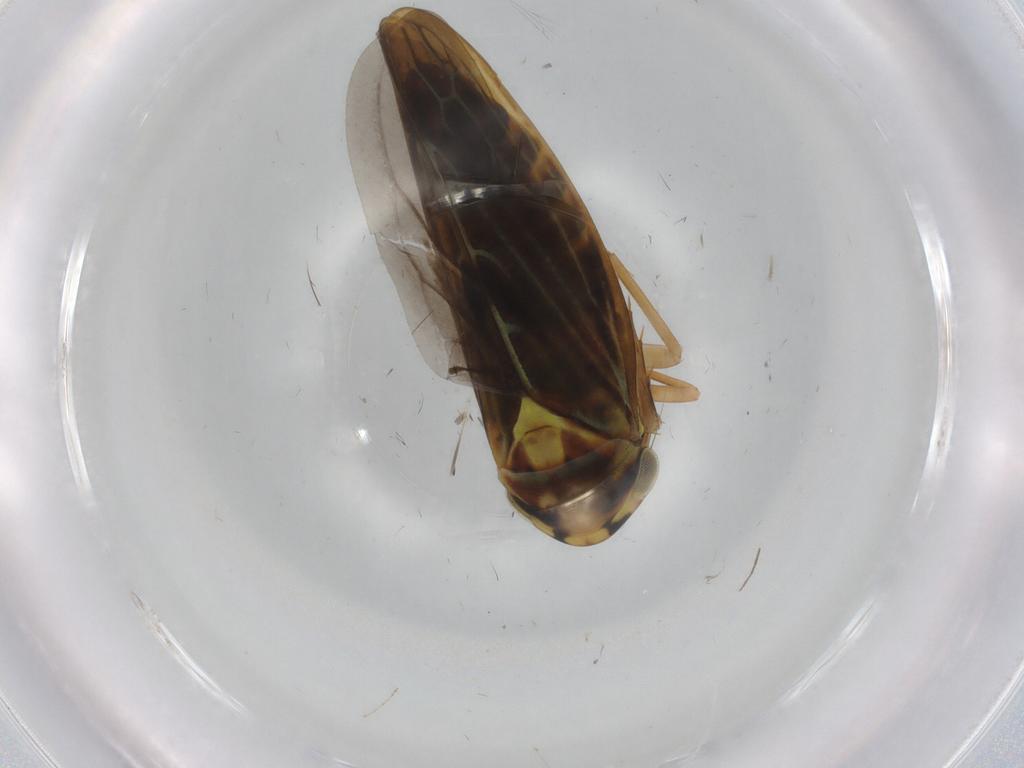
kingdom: Animalia
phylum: Arthropoda
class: Insecta
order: Hemiptera
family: Cicadellidae
